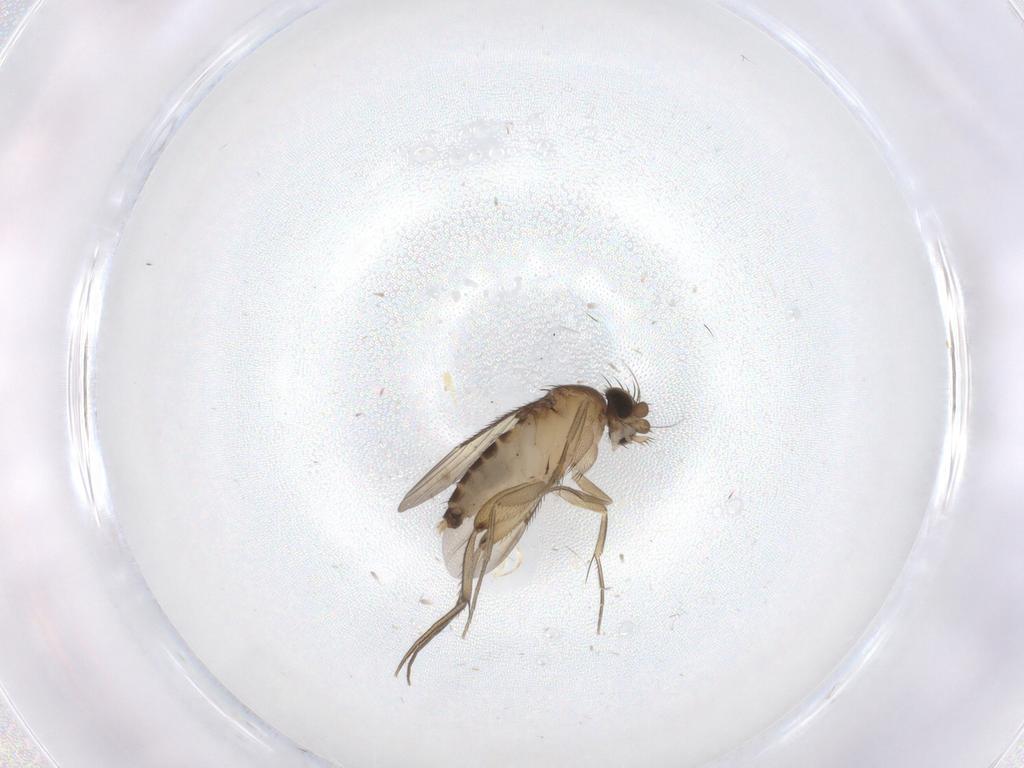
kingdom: Animalia
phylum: Arthropoda
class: Insecta
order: Diptera
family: Phoridae
